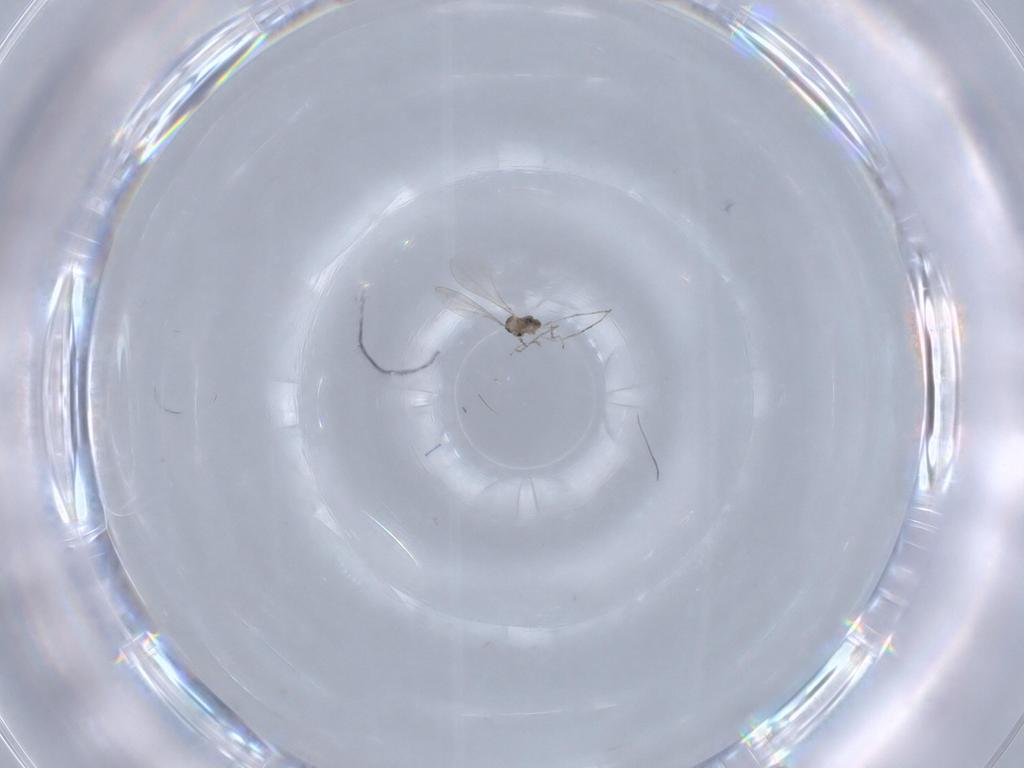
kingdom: Animalia
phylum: Arthropoda
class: Insecta
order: Diptera
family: Cecidomyiidae
